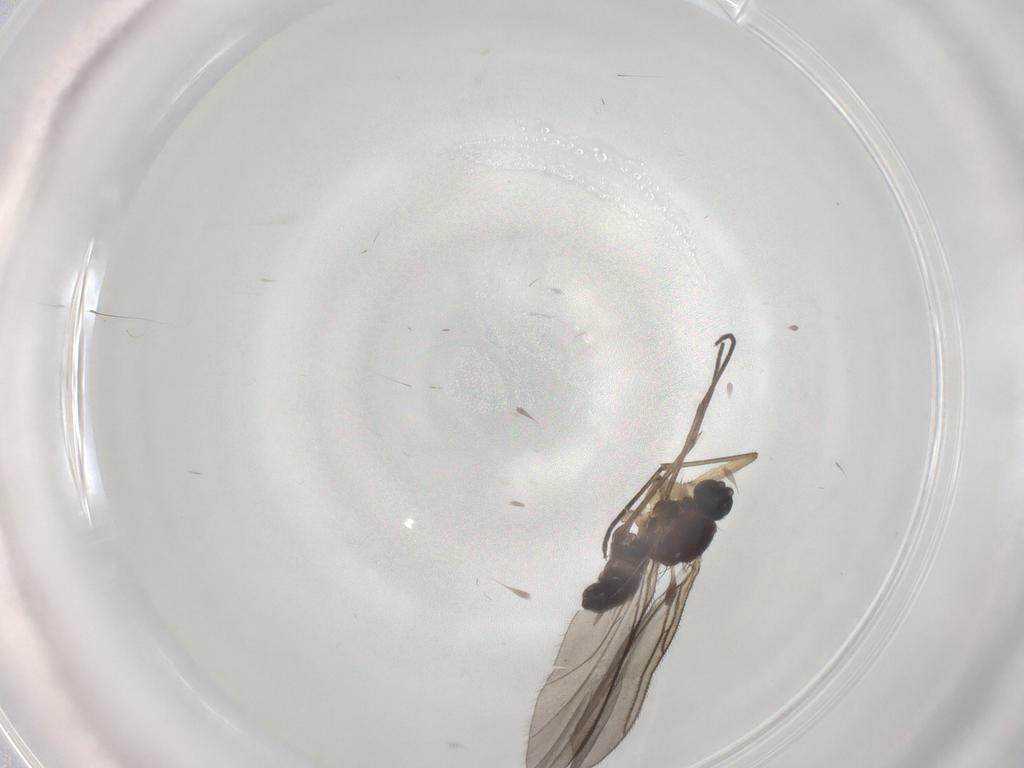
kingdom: Animalia
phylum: Arthropoda
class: Insecta
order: Diptera
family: Sciaridae
